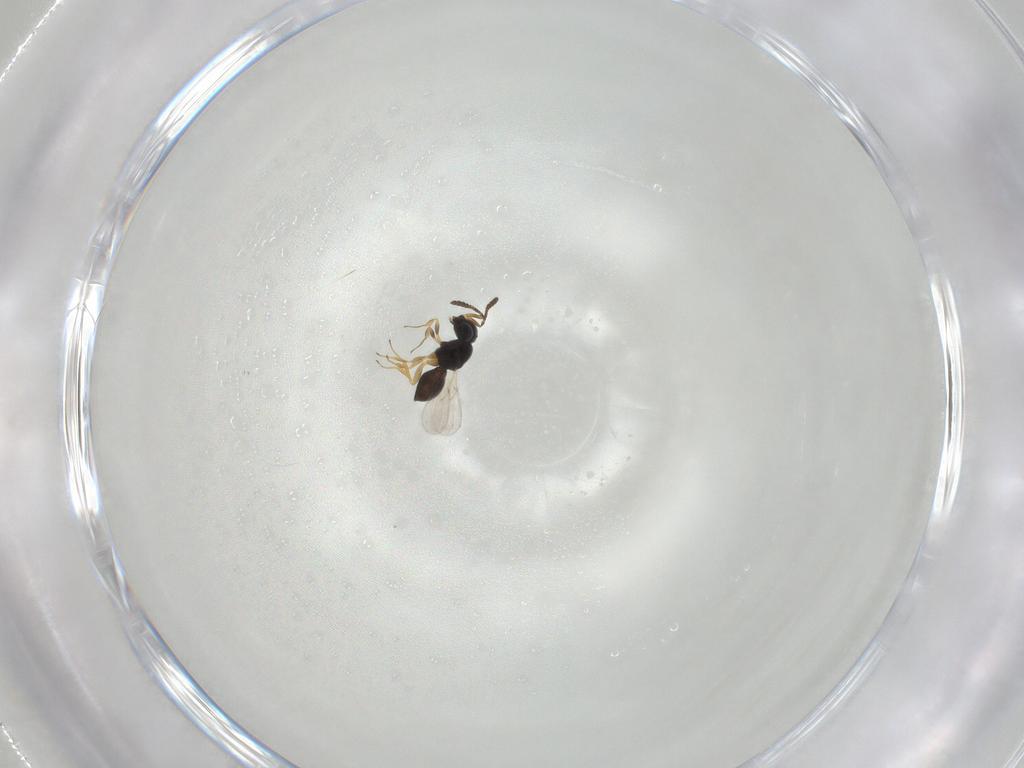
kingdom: Animalia
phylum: Arthropoda
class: Insecta
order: Hymenoptera
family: Scelionidae
